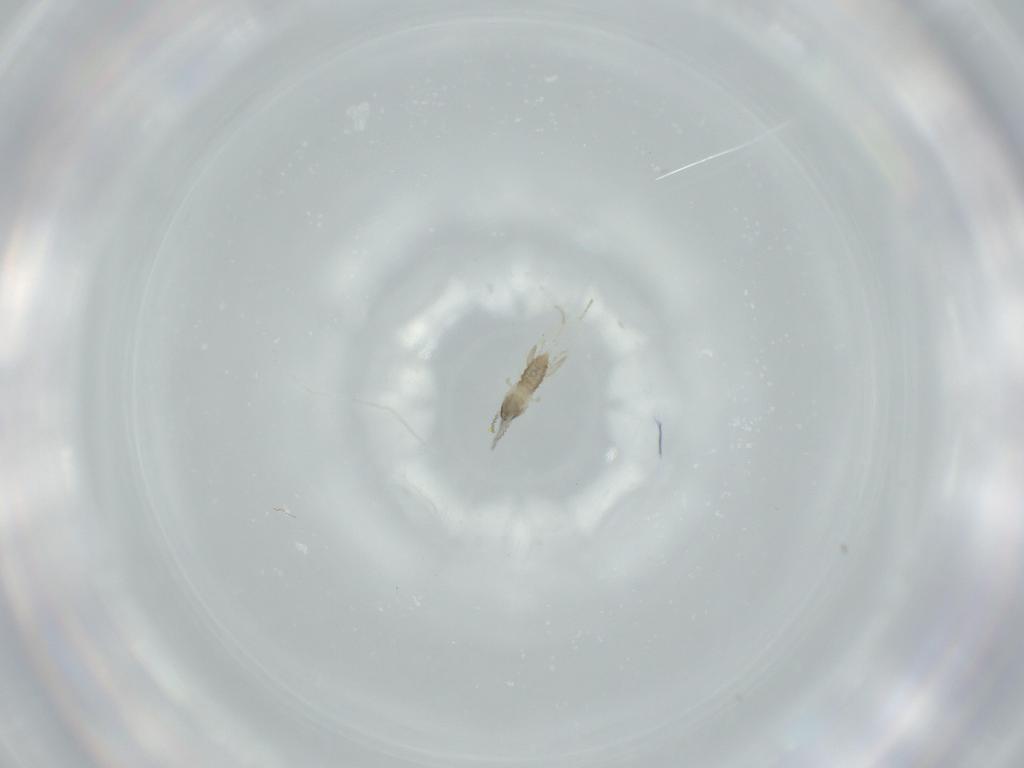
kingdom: Animalia
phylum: Arthropoda
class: Insecta
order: Diptera
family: Cecidomyiidae
